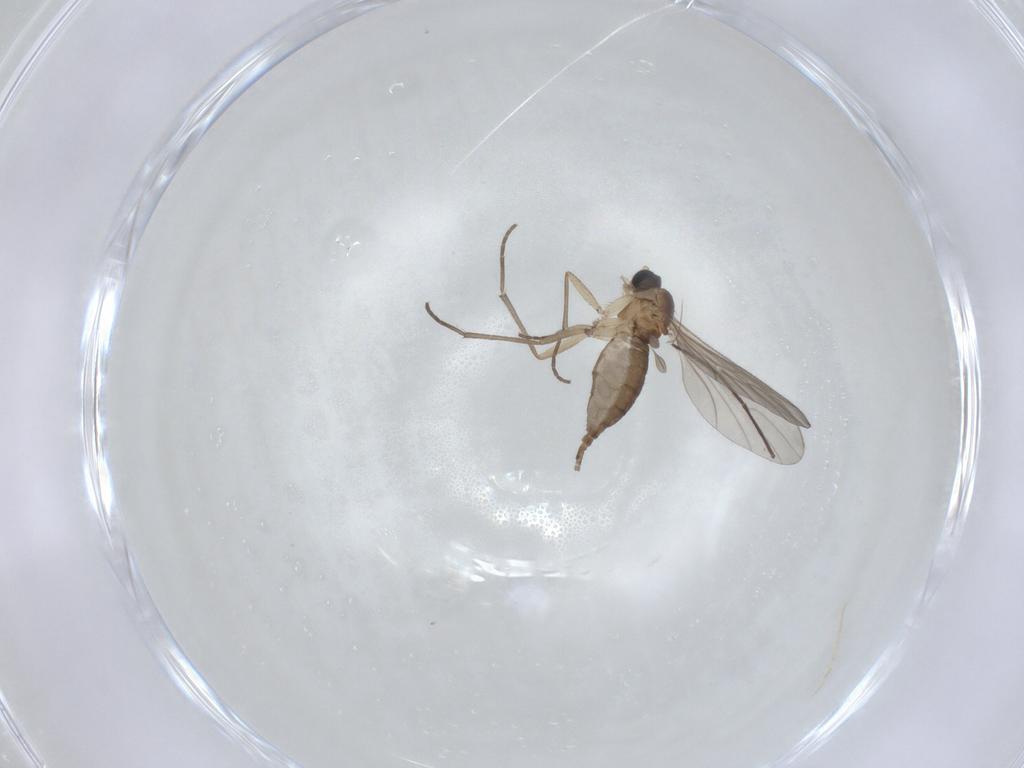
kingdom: Animalia
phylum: Arthropoda
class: Insecta
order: Diptera
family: Sciaridae
